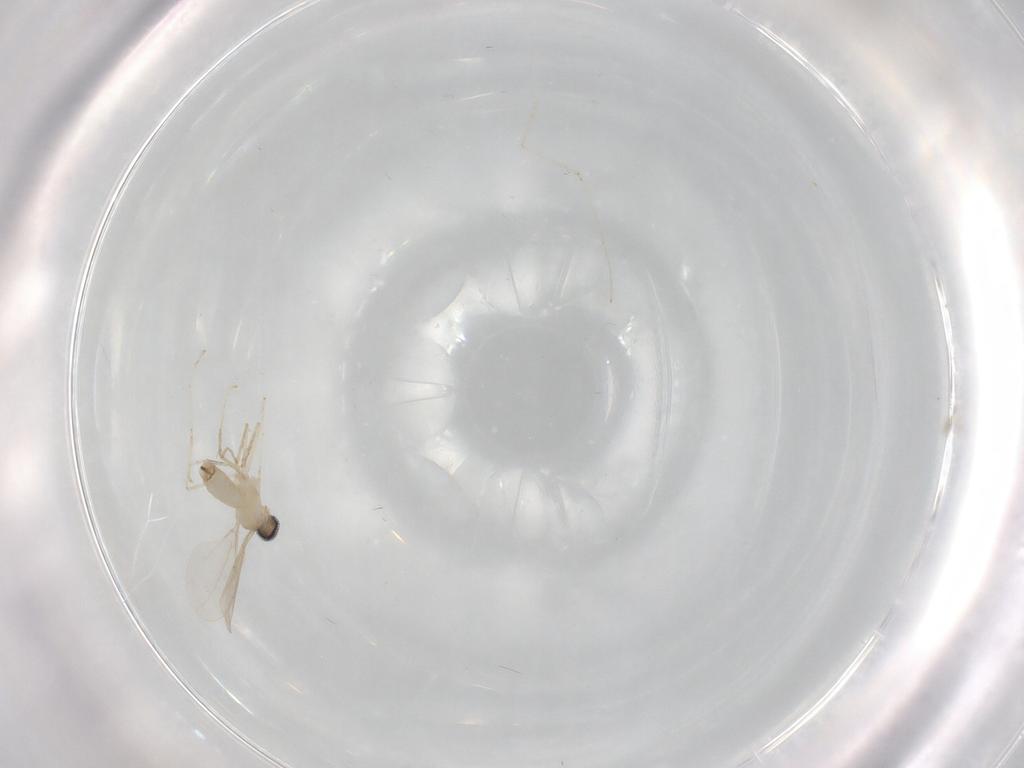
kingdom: Animalia
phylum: Arthropoda
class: Insecta
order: Diptera
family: Cecidomyiidae
